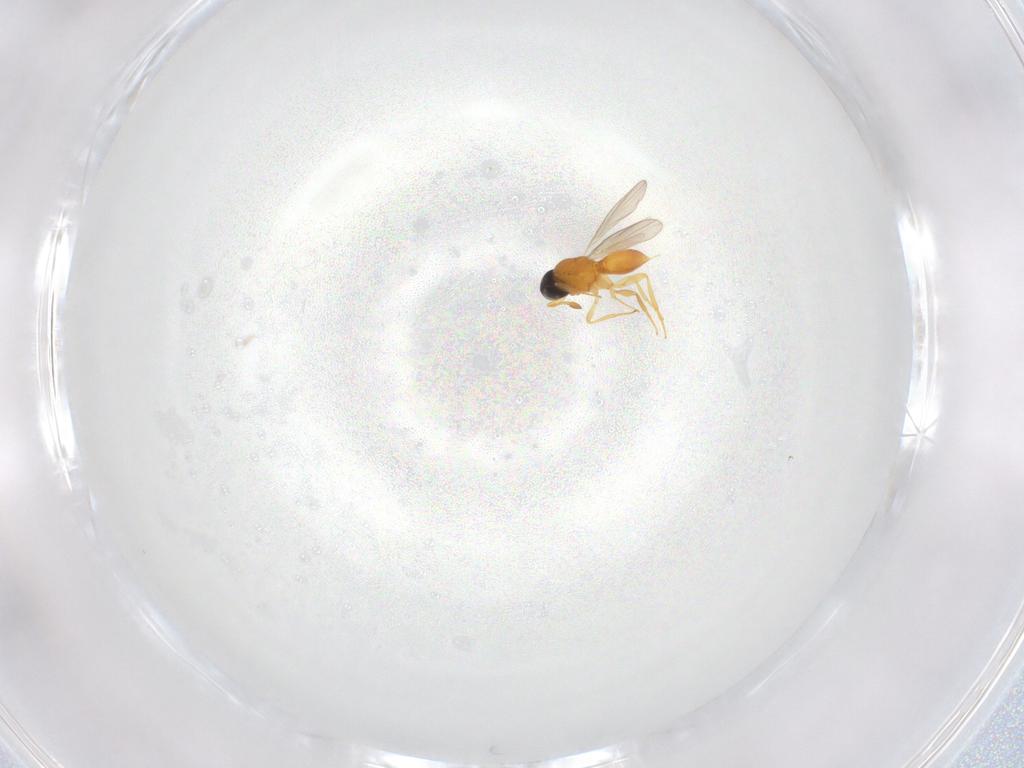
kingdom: Animalia
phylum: Arthropoda
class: Insecta
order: Hymenoptera
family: Platygastridae
